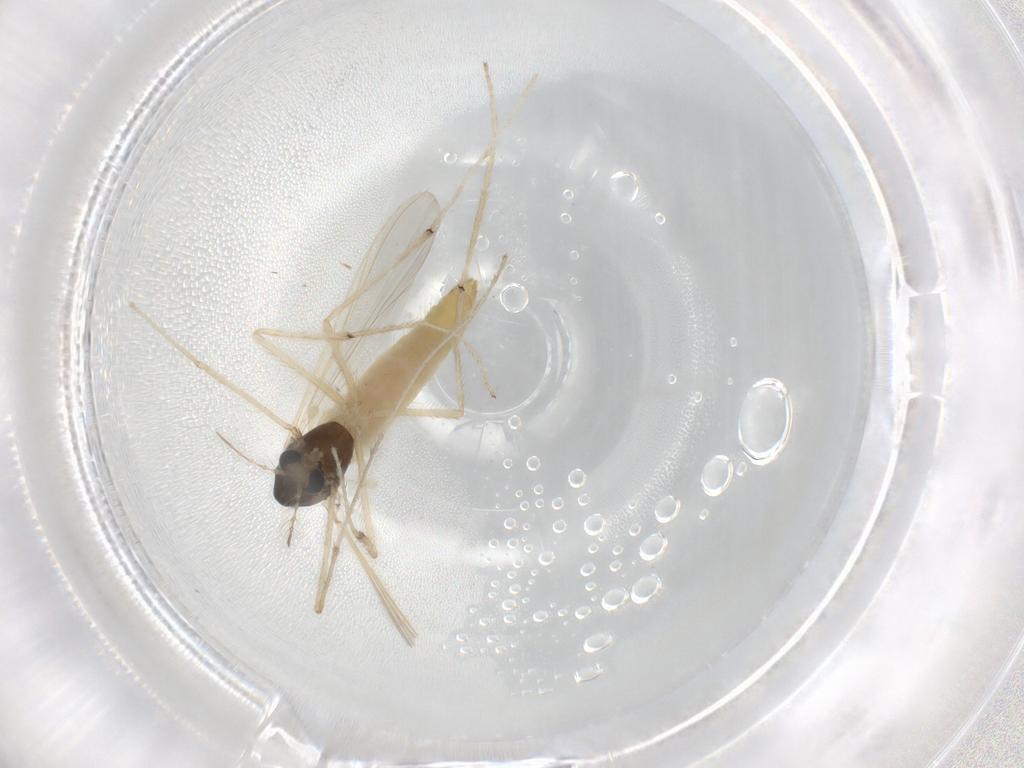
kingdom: Animalia
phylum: Arthropoda
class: Insecta
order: Diptera
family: Chironomidae
